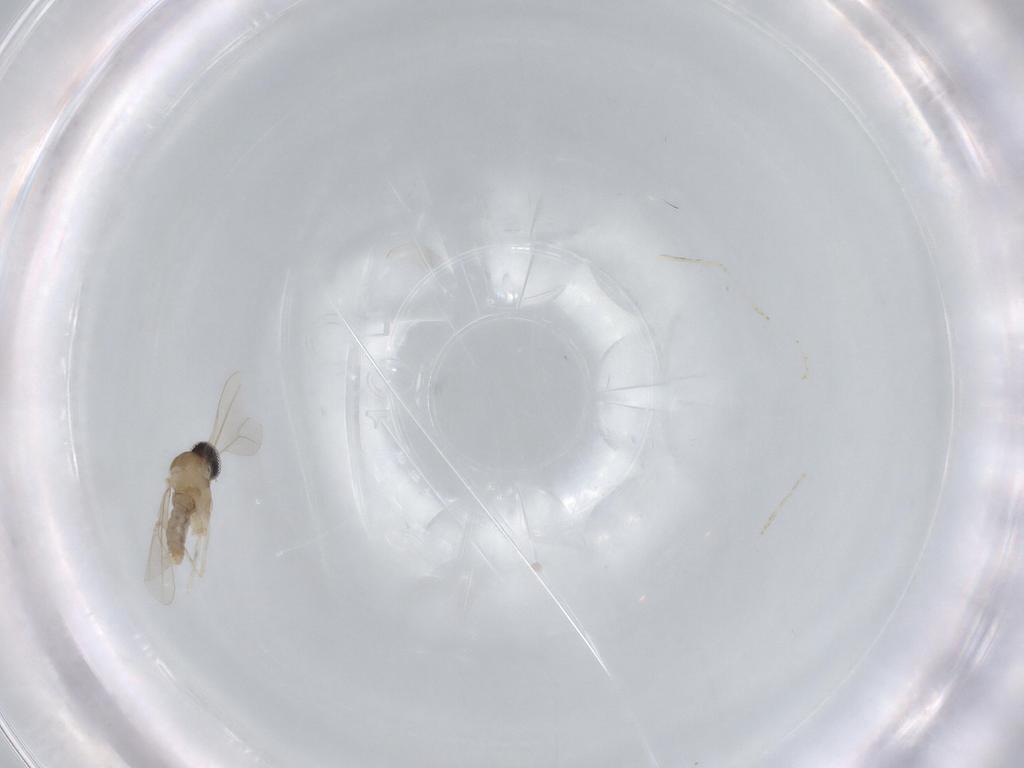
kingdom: Animalia
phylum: Arthropoda
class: Insecta
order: Diptera
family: Cecidomyiidae
